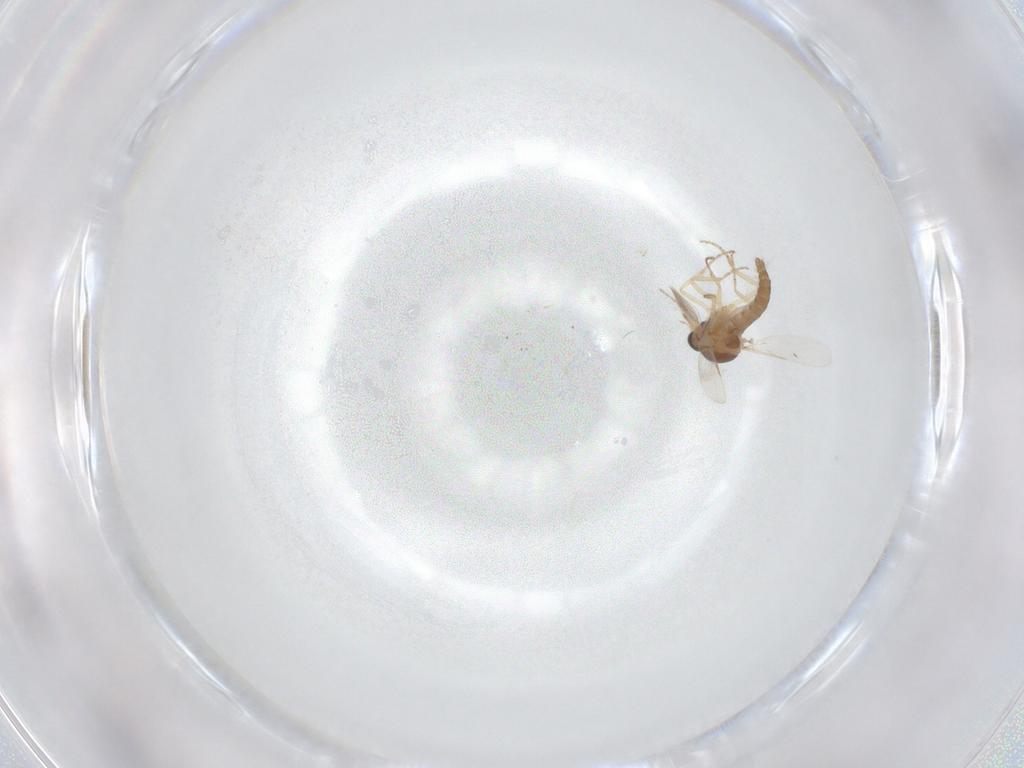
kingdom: Animalia
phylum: Arthropoda
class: Insecta
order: Diptera
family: Ceratopogonidae
